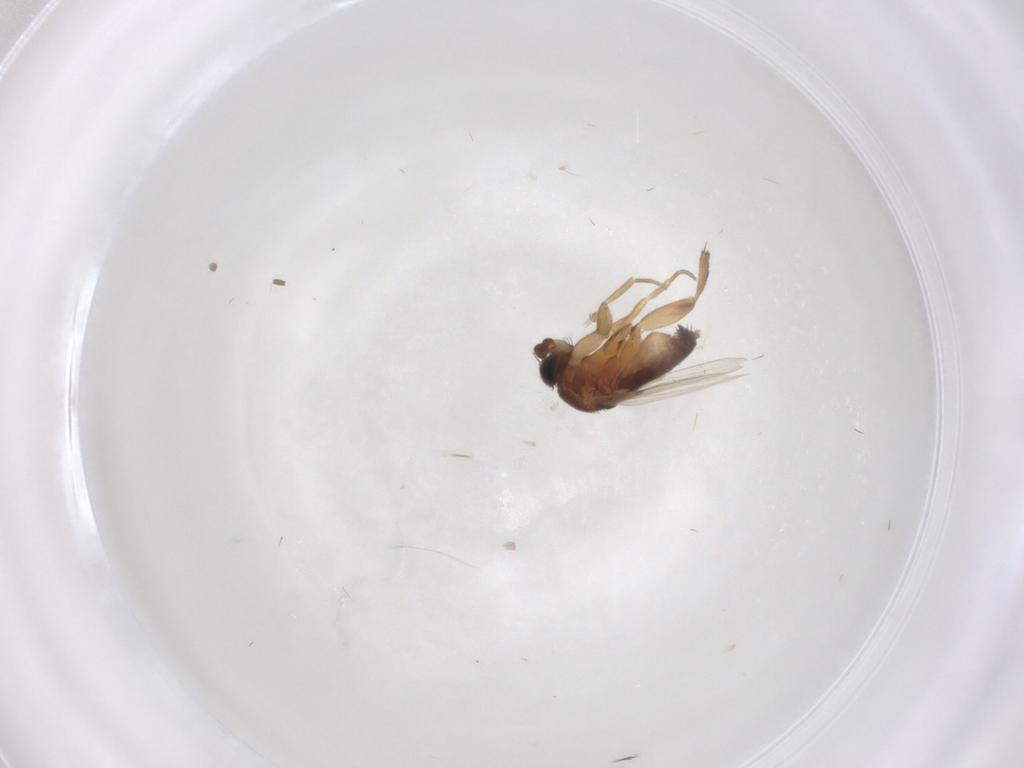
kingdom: Animalia
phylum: Arthropoda
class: Insecta
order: Diptera
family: Phoridae
